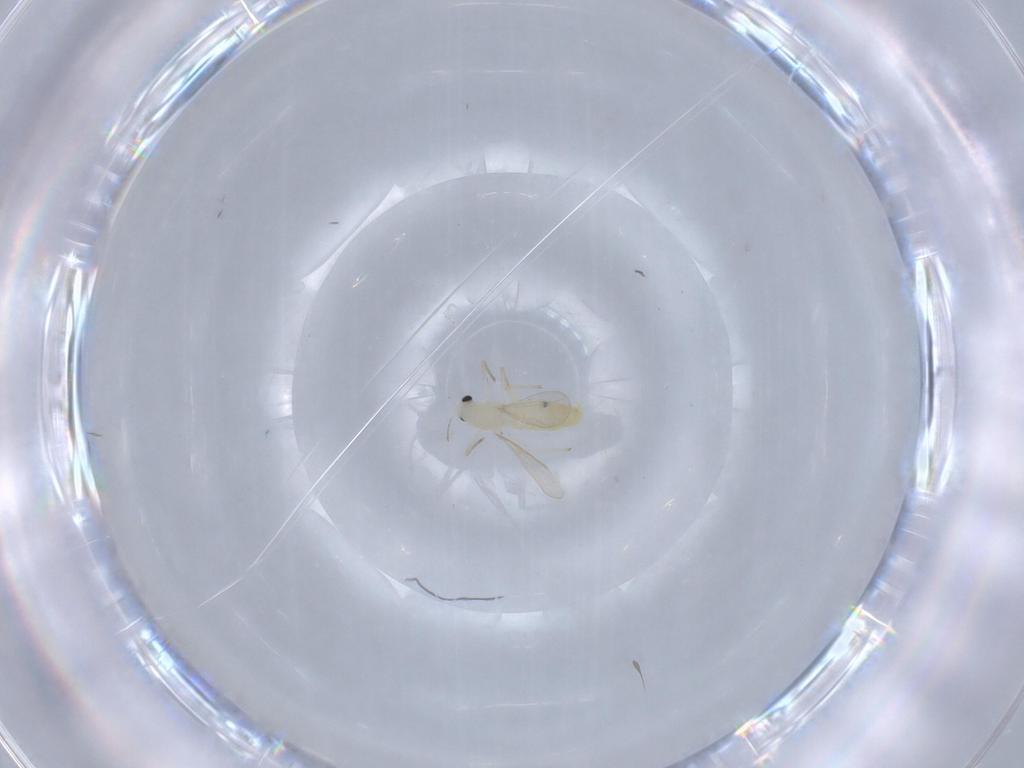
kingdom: Animalia
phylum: Arthropoda
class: Insecta
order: Diptera
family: Chironomidae
